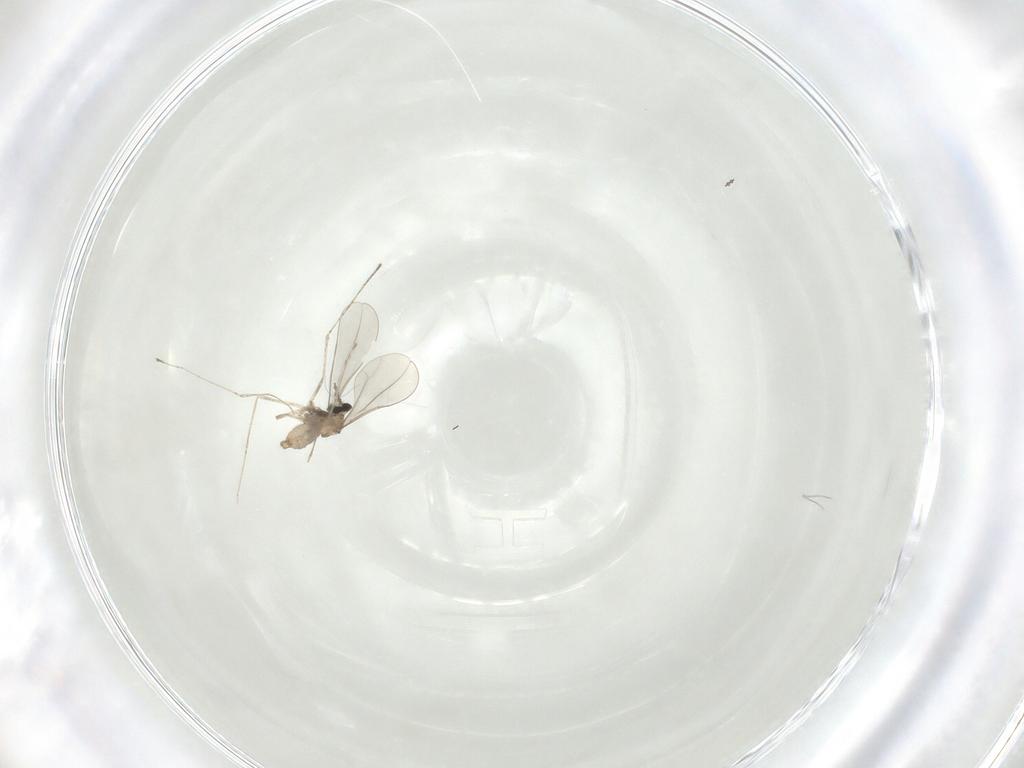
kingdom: Animalia
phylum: Arthropoda
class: Insecta
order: Diptera
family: Cecidomyiidae
